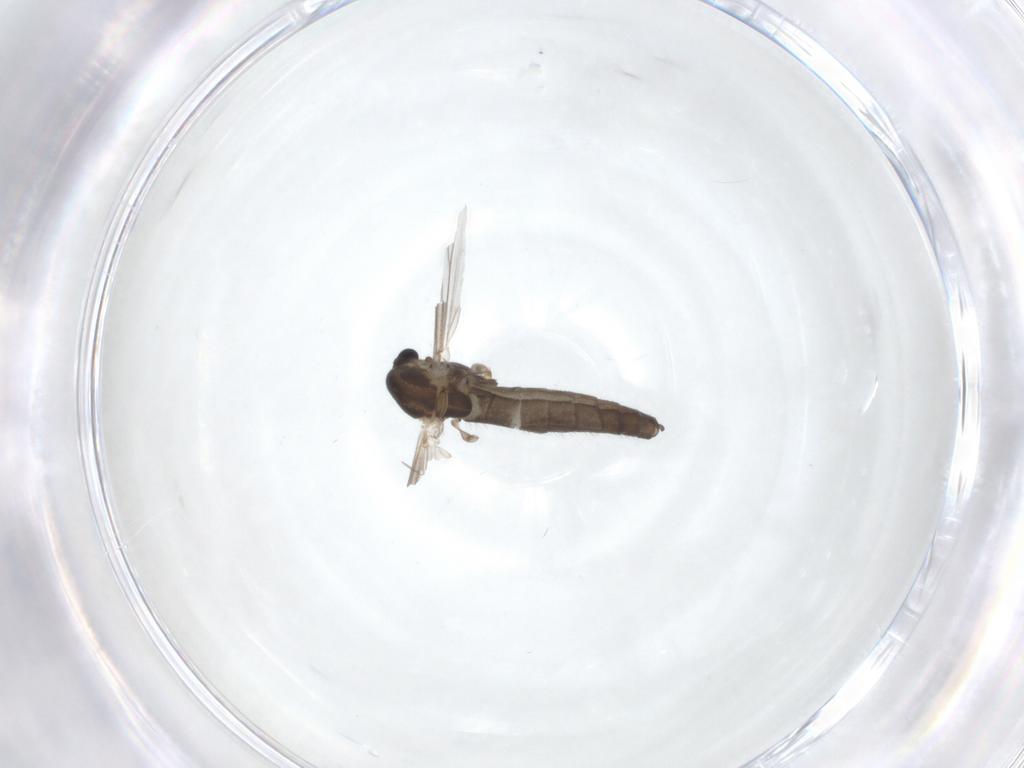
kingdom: Animalia
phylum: Arthropoda
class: Insecta
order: Diptera
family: Chironomidae
